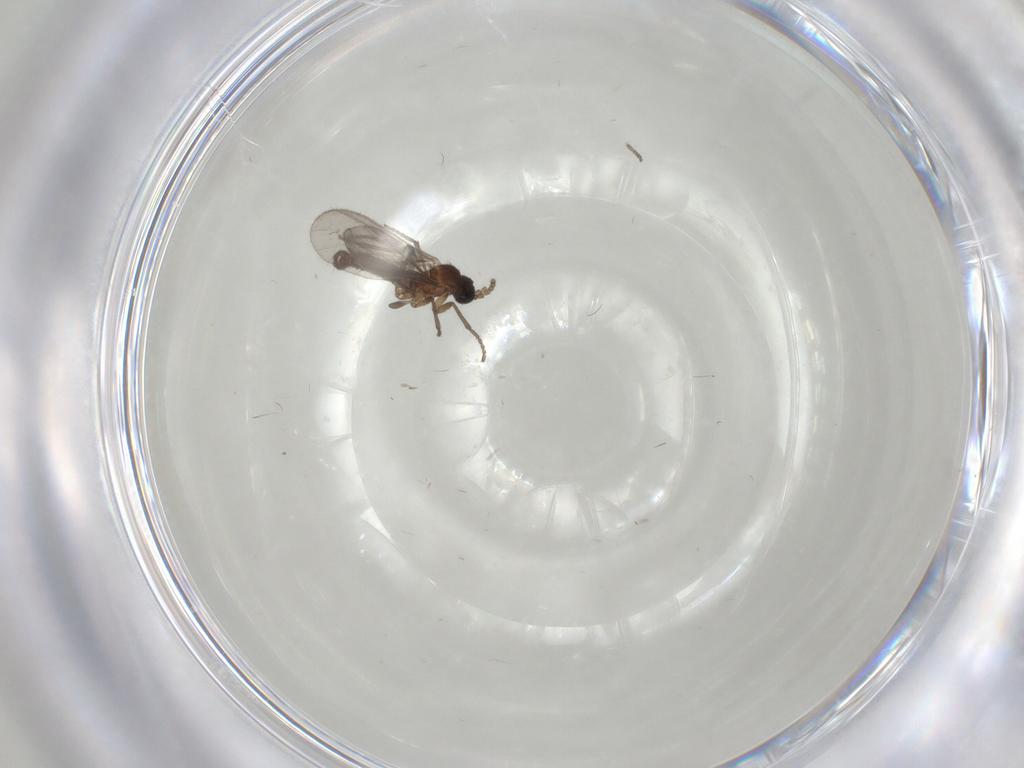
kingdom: Animalia
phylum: Arthropoda
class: Insecta
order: Diptera
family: Sciaridae
